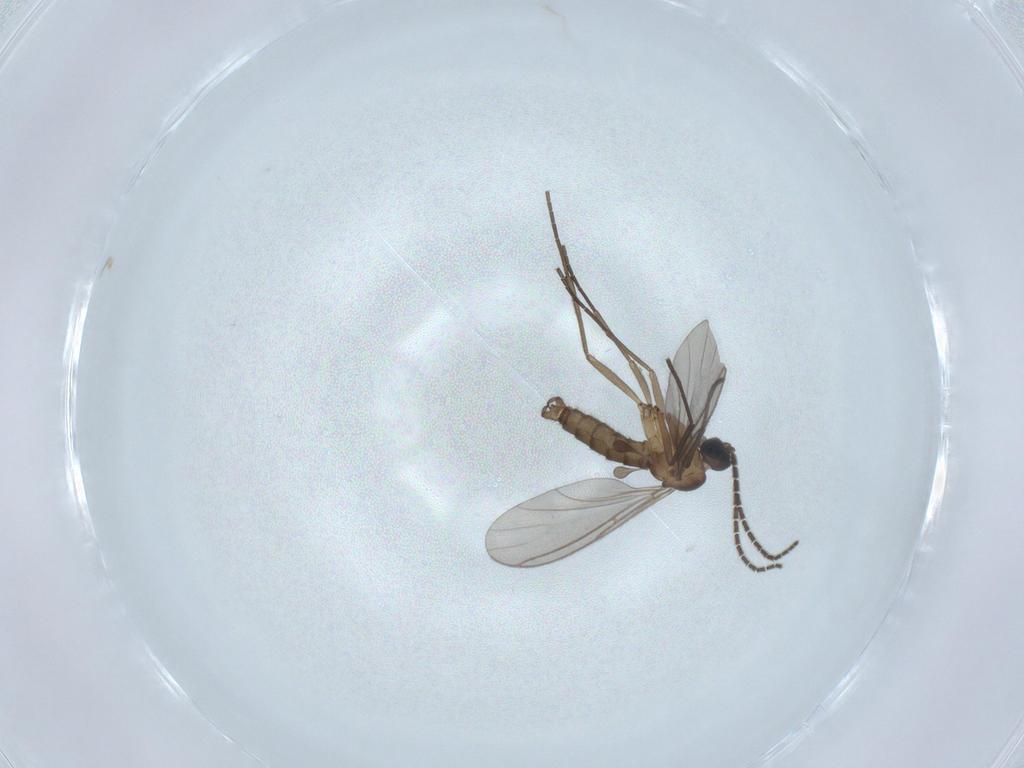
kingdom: Animalia
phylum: Arthropoda
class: Insecta
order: Diptera
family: Sciaridae
